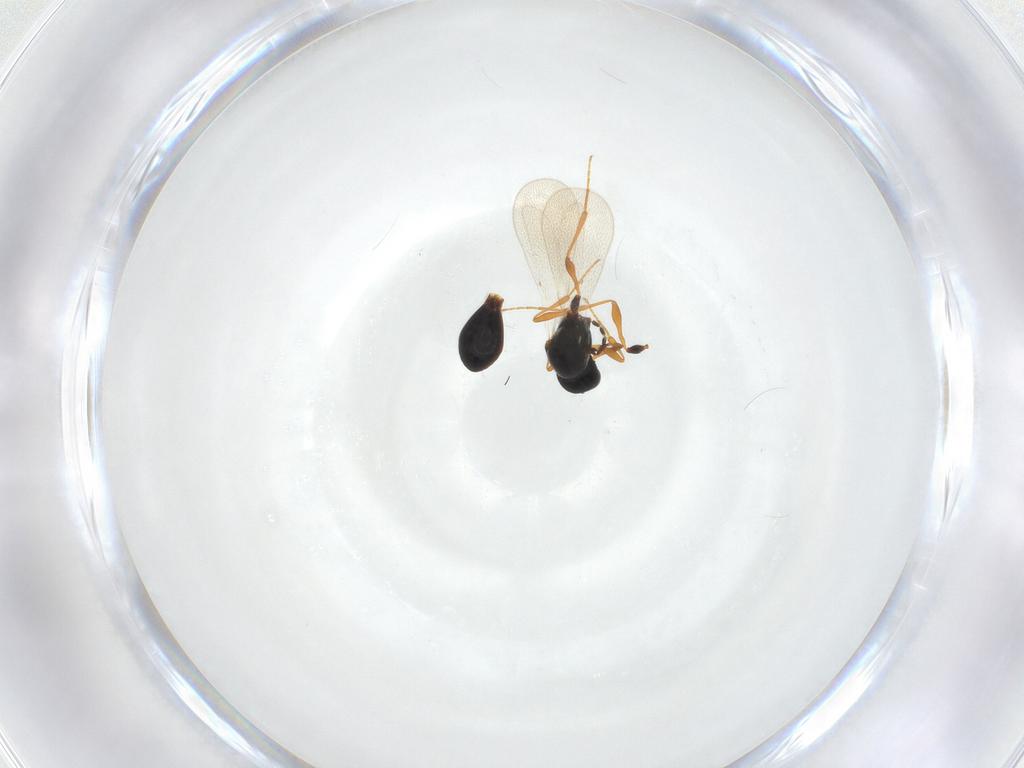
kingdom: Animalia
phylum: Arthropoda
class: Insecta
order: Hymenoptera
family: Platygastridae
